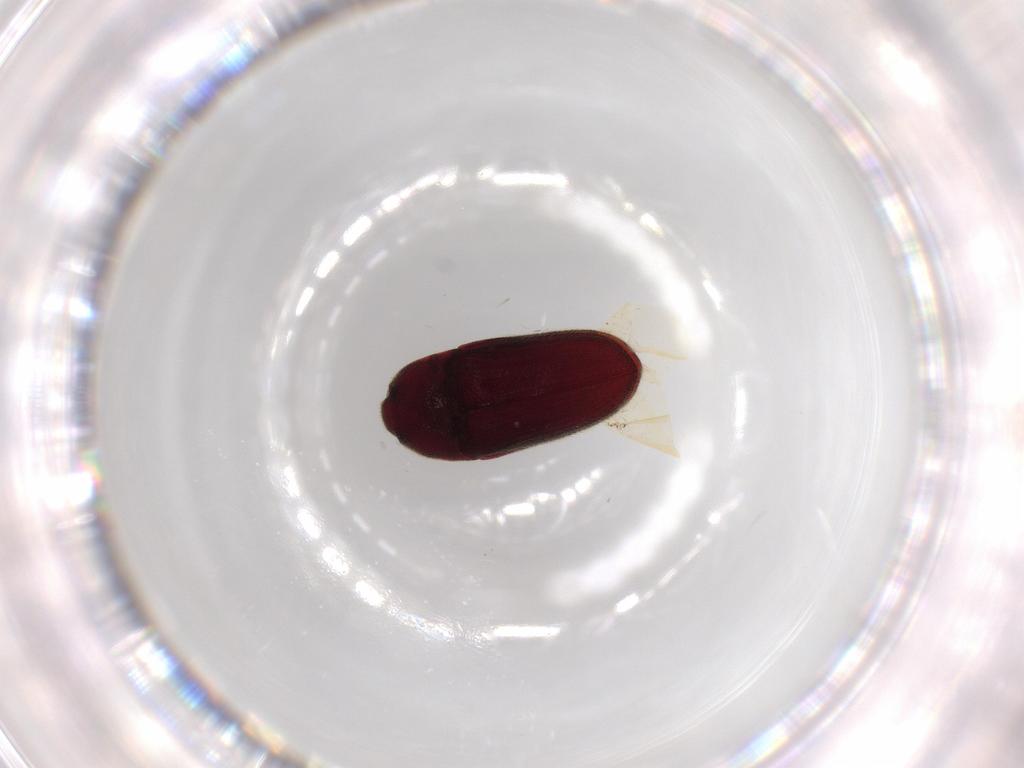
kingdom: Animalia
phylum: Arthropoda
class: Insecta
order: Coleoptera
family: Throscidae
